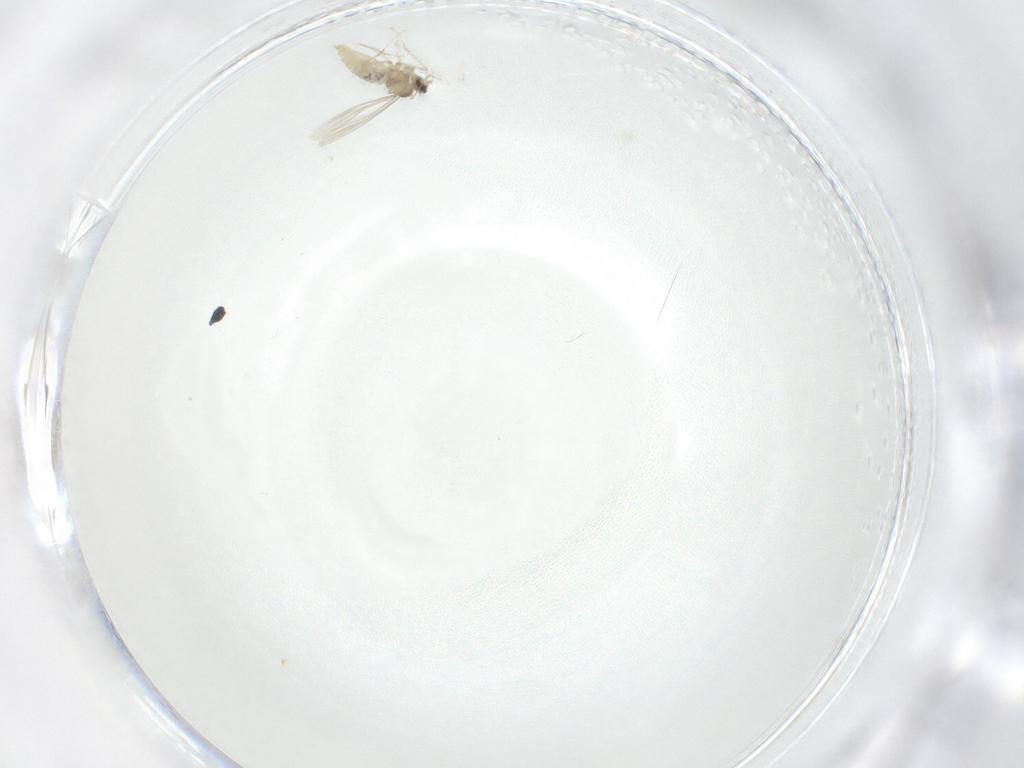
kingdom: Animalia
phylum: Arthropoda
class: Insecta
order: Diptera
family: Cecidomyiidae
